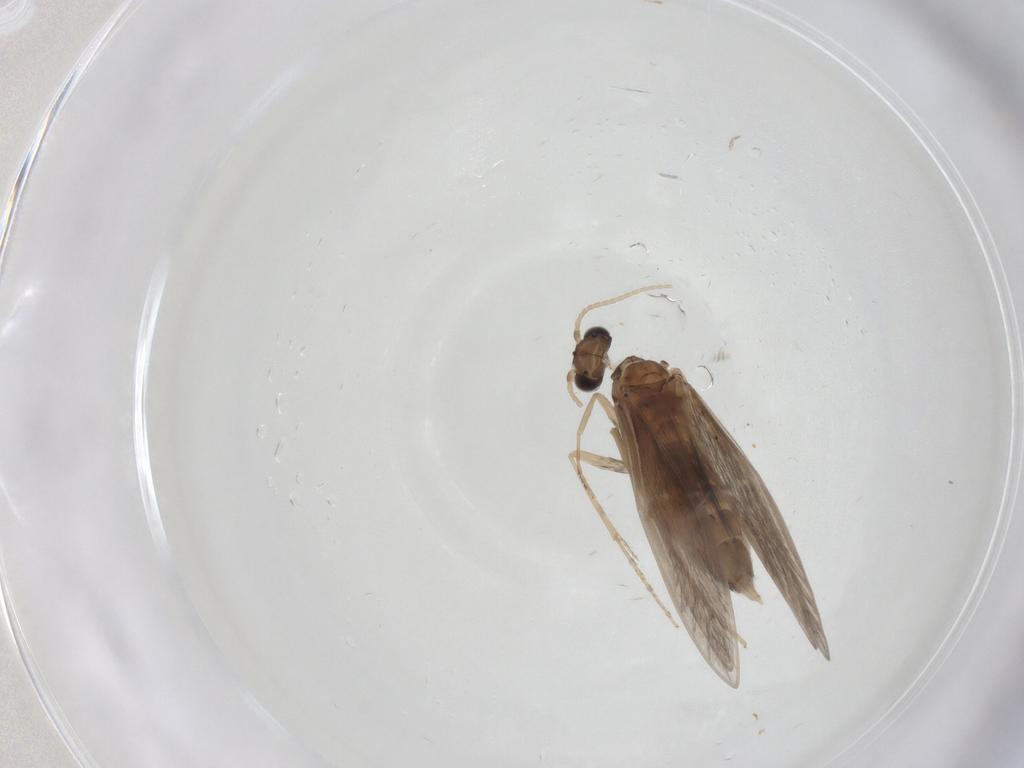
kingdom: Animalia
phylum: Arthropoda
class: Insecta
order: Trichoptera
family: Hydroptilidae
